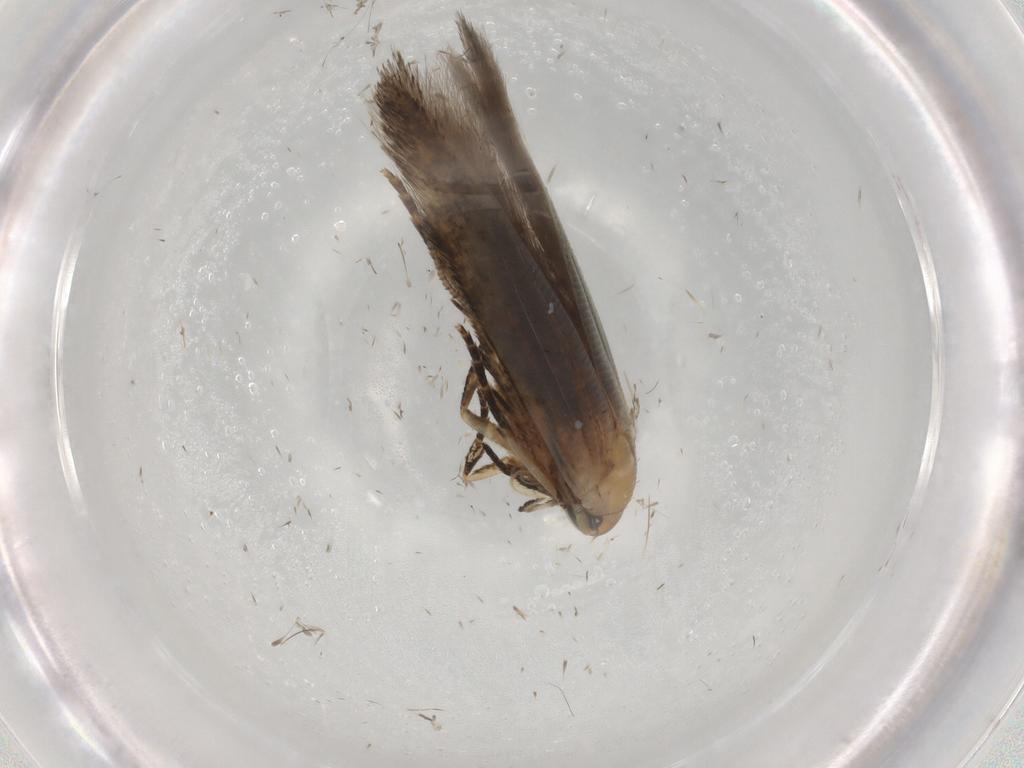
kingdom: Animalia
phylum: Arthropoda
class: Insecta
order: Lepidoptera
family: Cosmopterigidae
